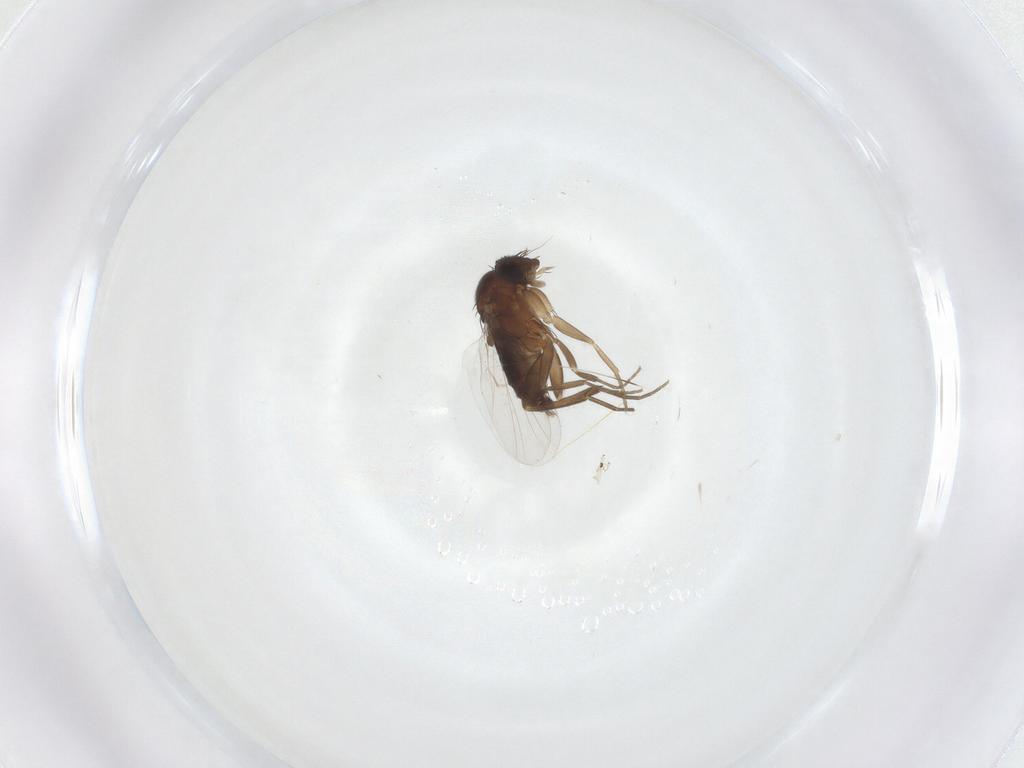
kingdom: Animalia
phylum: Arthropoda
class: Insecta
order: Diptera
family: Phoridae
